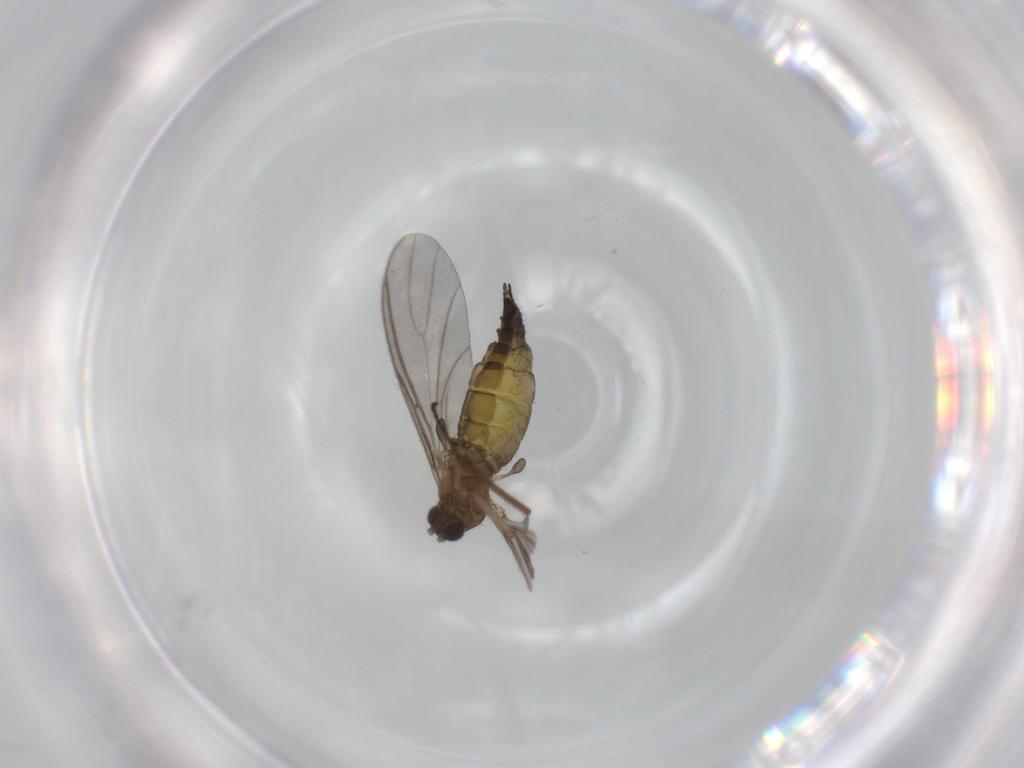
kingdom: Animalia
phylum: Arthropoda
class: Insecta
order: Diptera
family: Sciaridae
